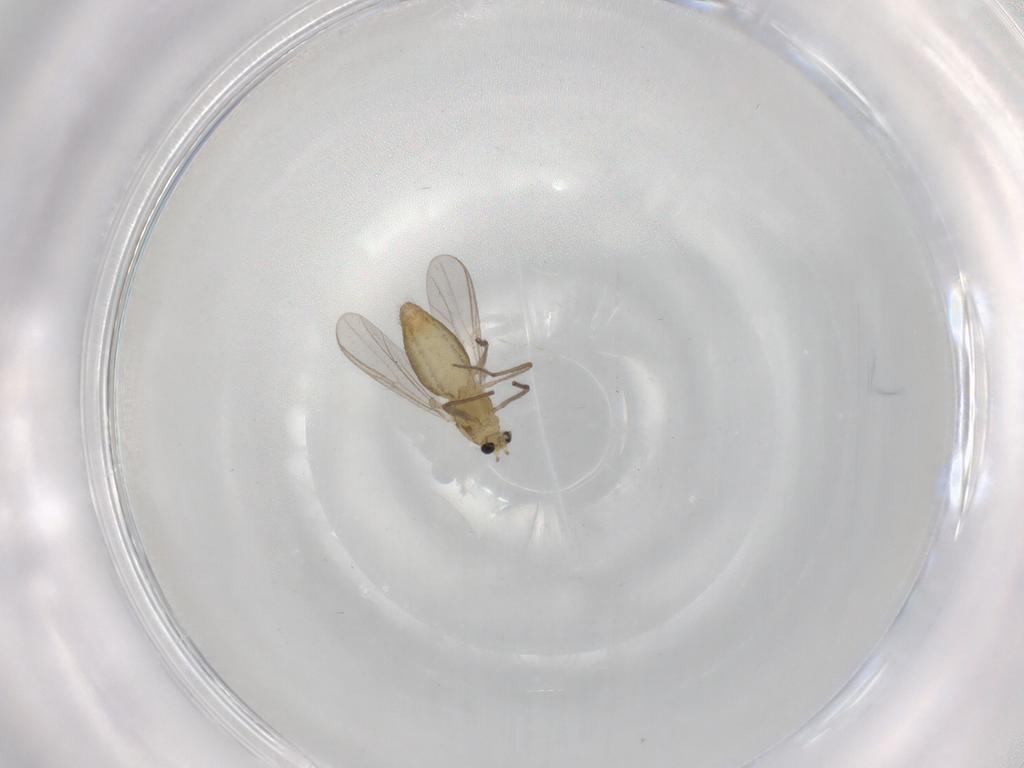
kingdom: Animalia
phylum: Arthropoda
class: Insecta
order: Diptera
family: Chironomidae
